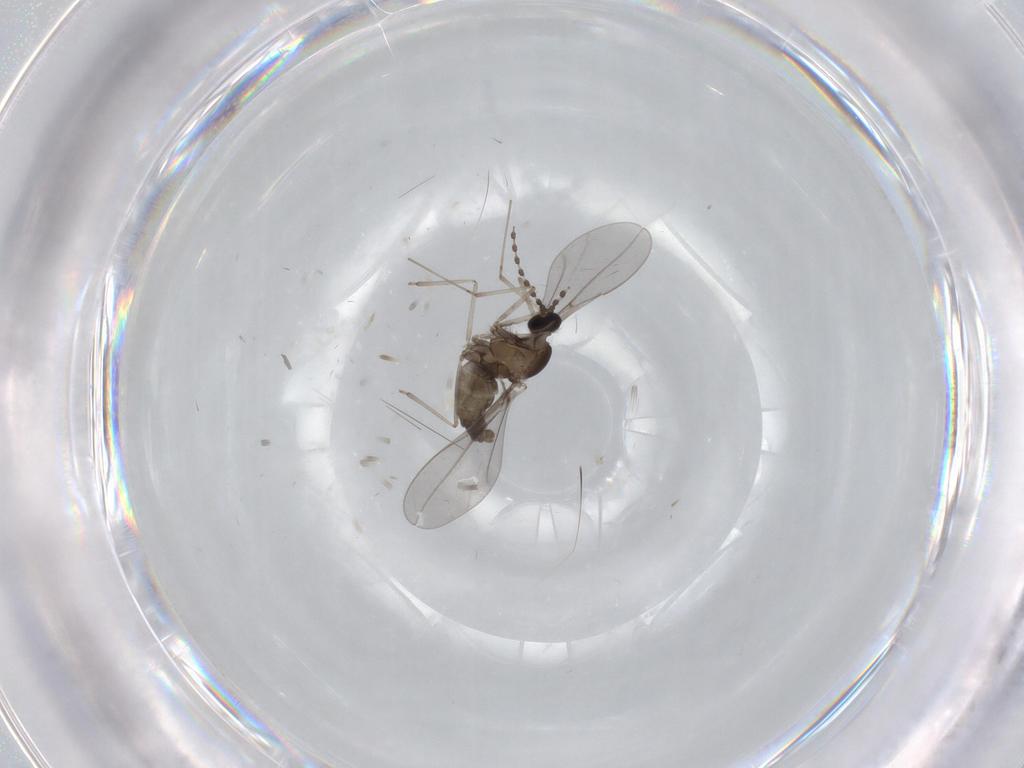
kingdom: Animalia
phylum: Arthropoda
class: Insecta
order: Diptera
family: Cecidomyiidae
